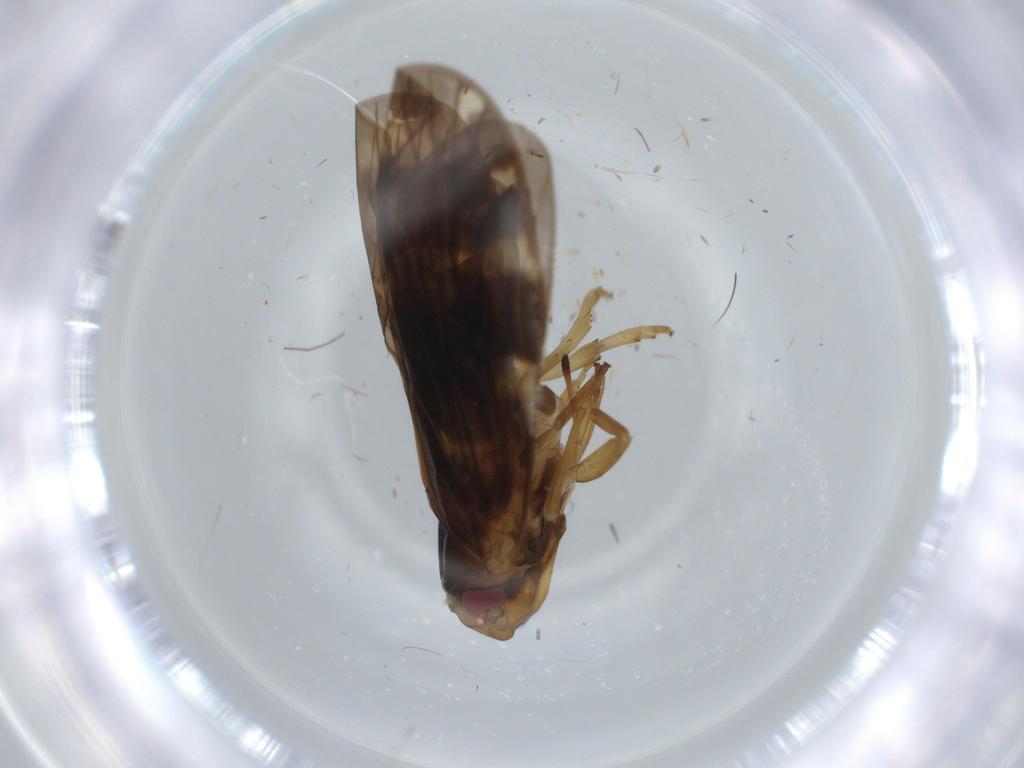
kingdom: Animalia
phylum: Arthropoda
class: Insecta
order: Hemiptera
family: Cixiidae
